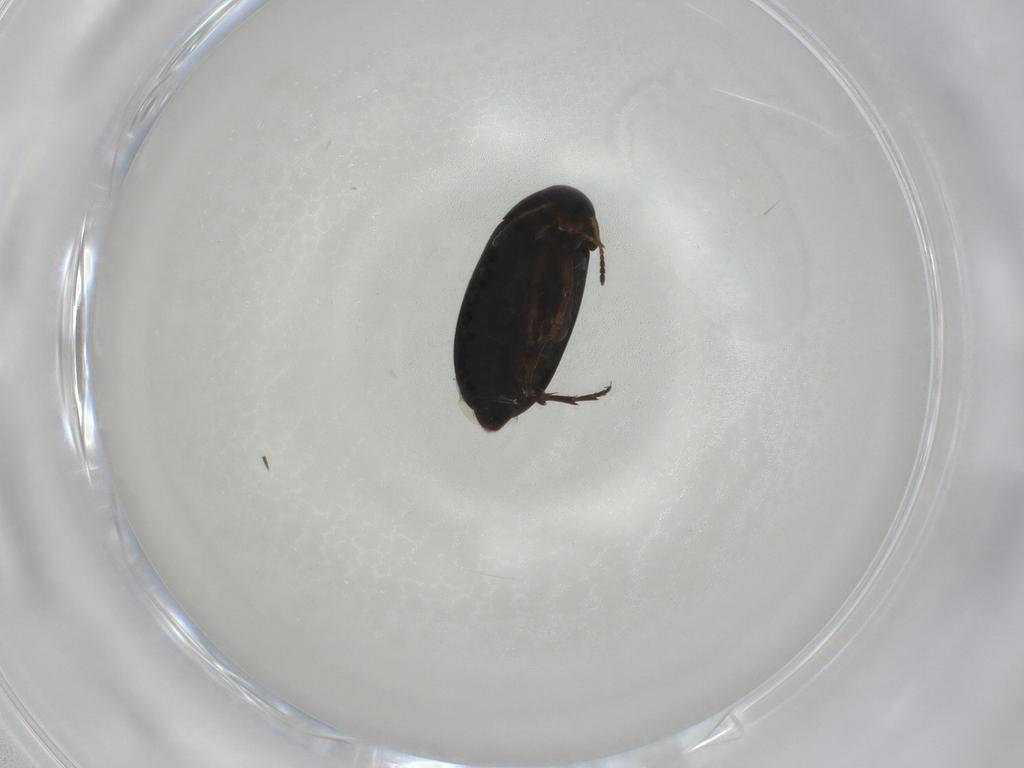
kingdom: Animalia
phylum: Arthropoda
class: Insecta
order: Coleoptera
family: Scraptiidae
